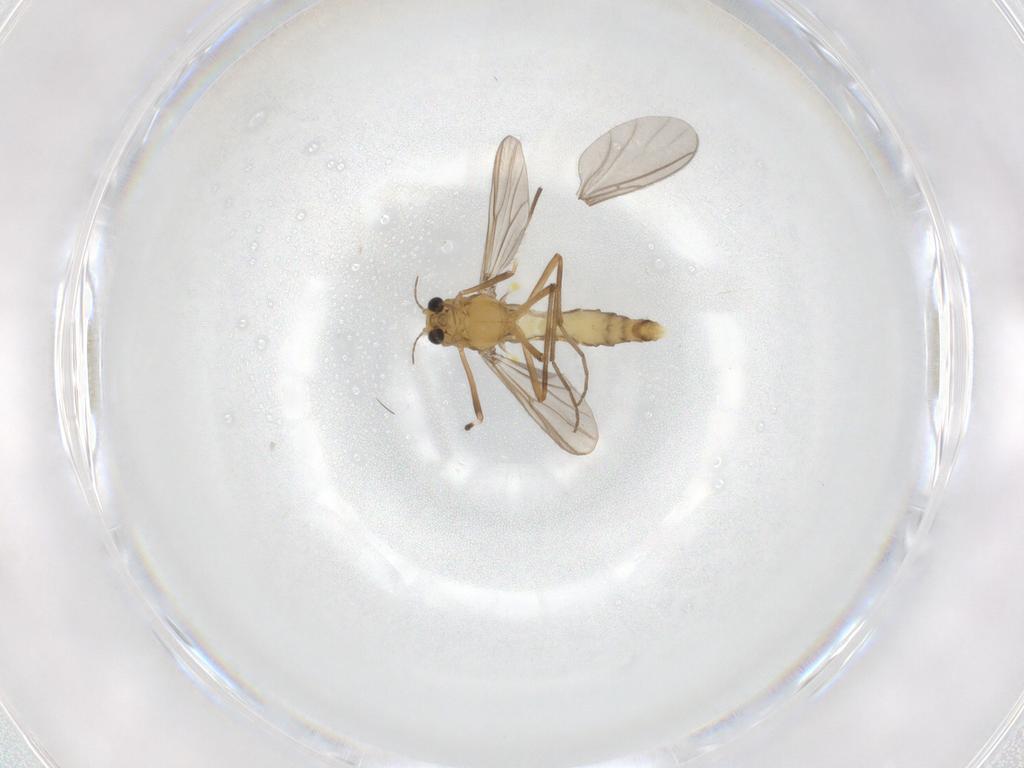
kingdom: Animalia
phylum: Arthropoda
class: Insecta
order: Diptera
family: Chironomidae
